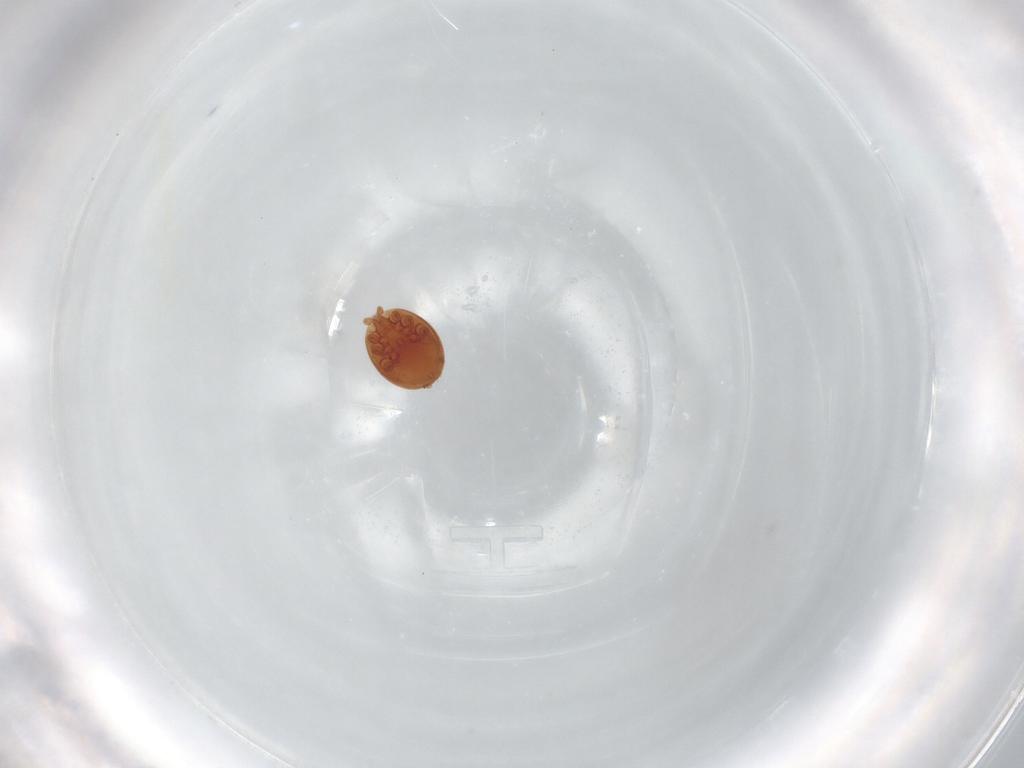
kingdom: Animalia
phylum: Arthropoda
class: Arachnida
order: Mesostigmata
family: Trematuridae
